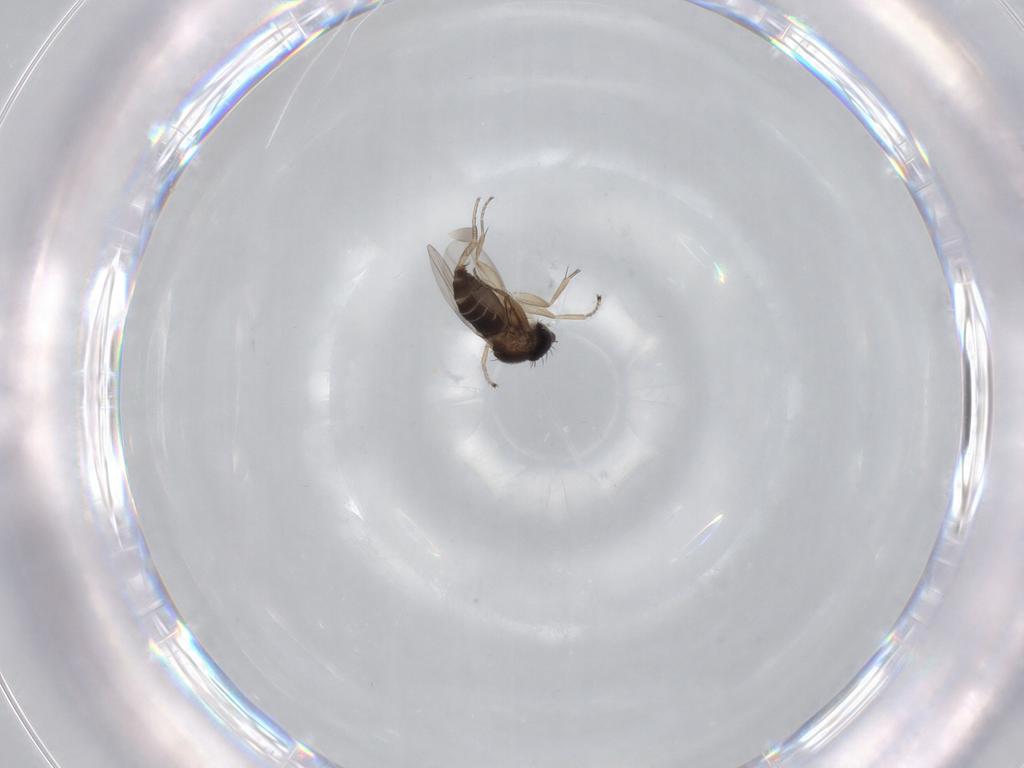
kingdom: Animalia
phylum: Arthropoda
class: Insecta
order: Diptera
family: Phoridae
